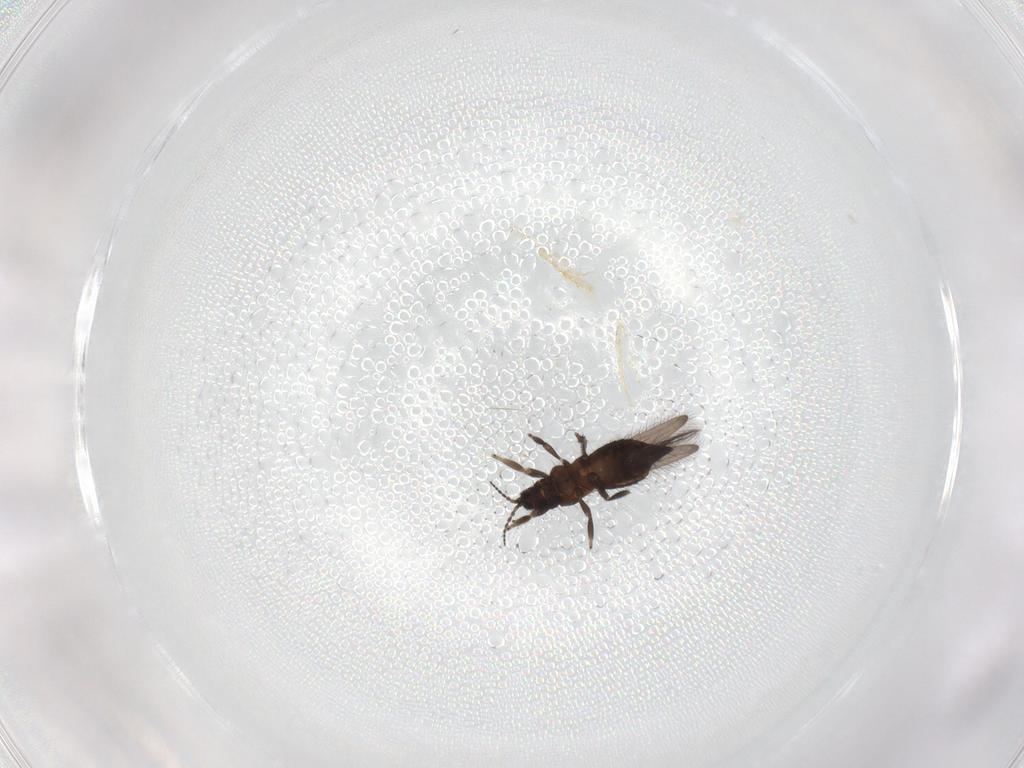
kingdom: Animalia
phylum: Arthropoda
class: Insecta
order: Thysanoptera
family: Melanthripidae
